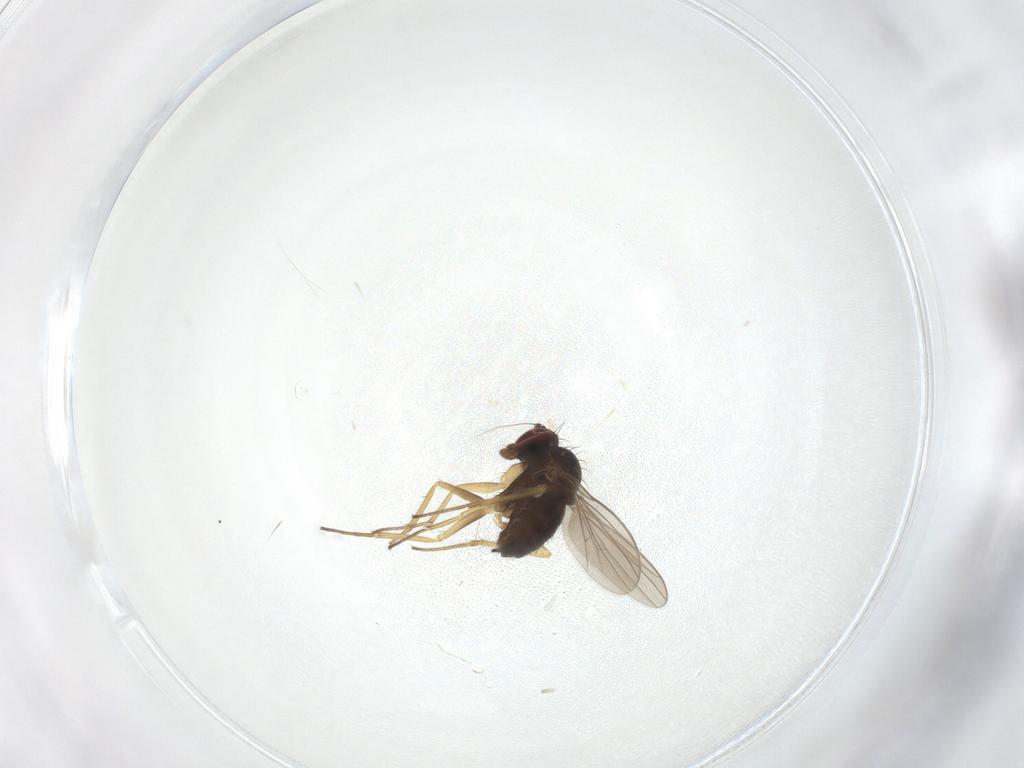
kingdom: Animalia
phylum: Arthropoda
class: Insecta
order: Diptera
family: Dolichopodidae
